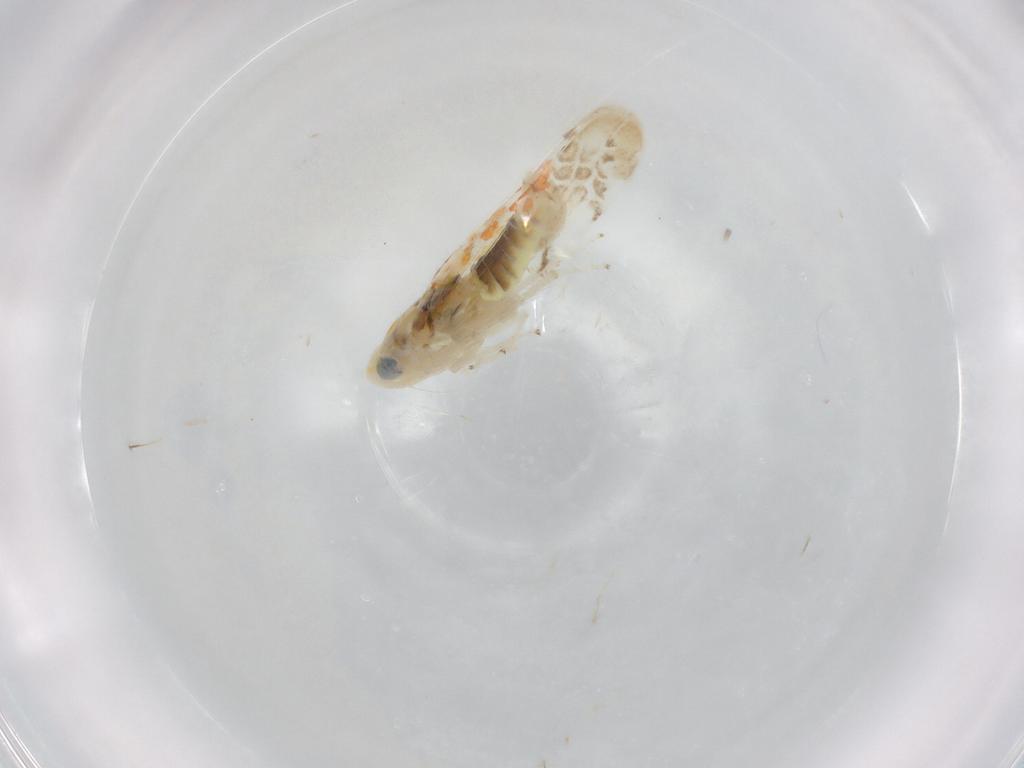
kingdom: Animalia
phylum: Arthropoda
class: Insecta
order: Hemiptera
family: Cicadellidae
